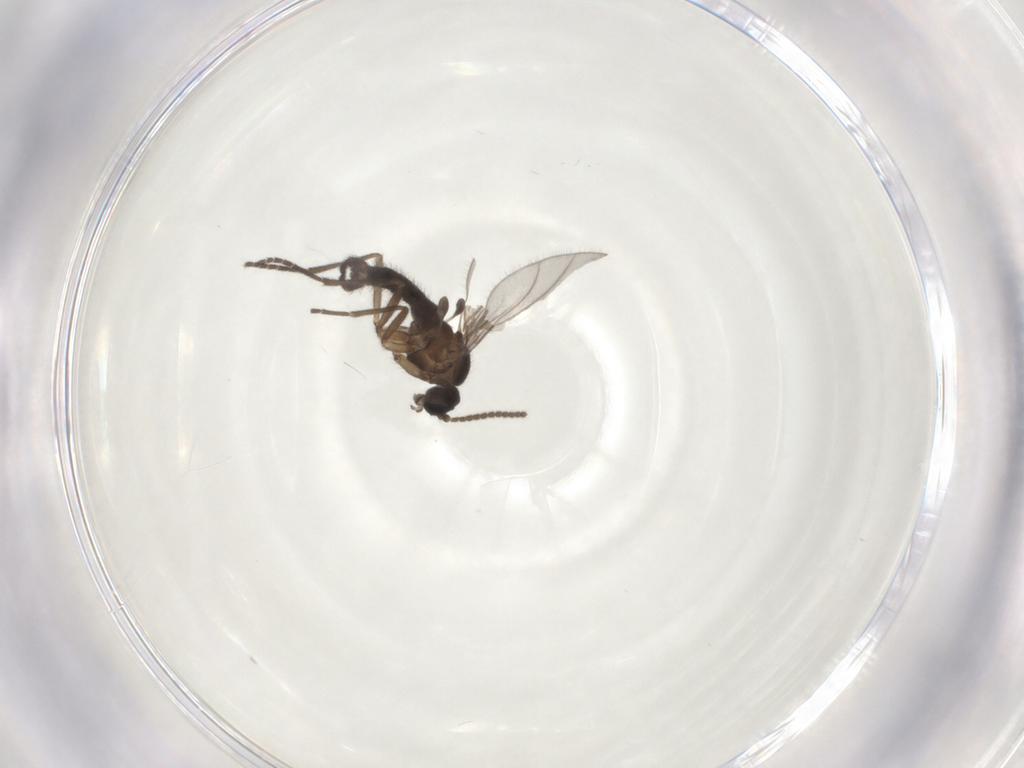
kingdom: Animalia
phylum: Arthropoda
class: Insecta
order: Diptera
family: Sciaridae
